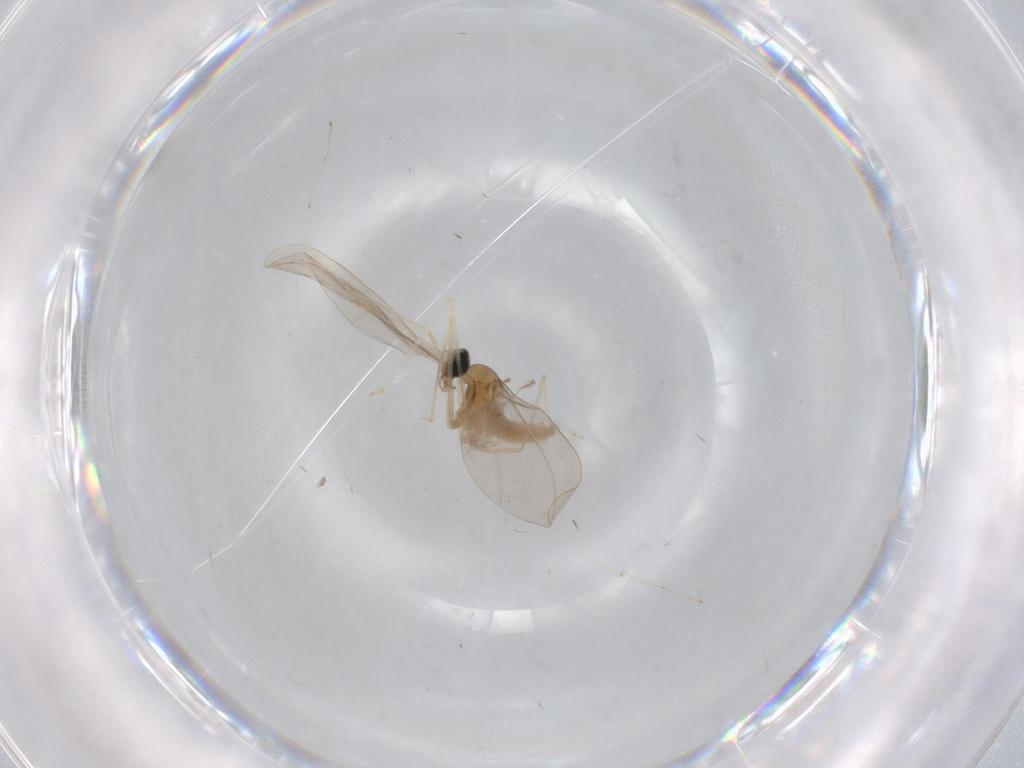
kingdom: Animalia
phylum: Arthropoda
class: Insecta
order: Diptera
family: Cecidomyiidae
